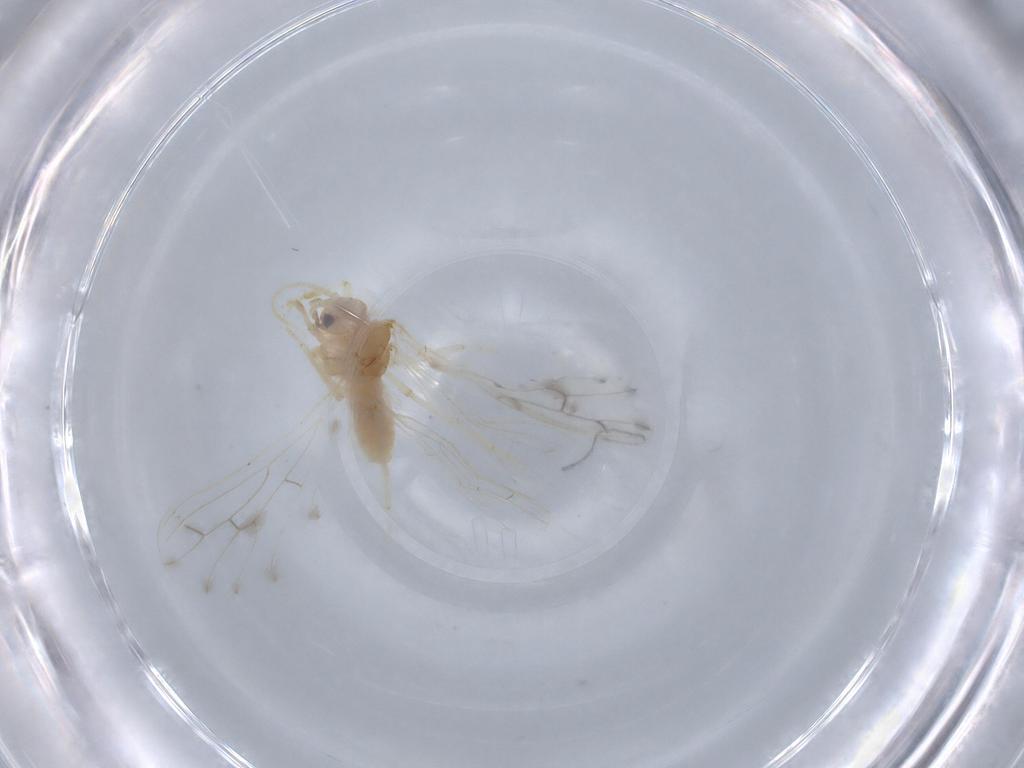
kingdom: Animalia
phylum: Arthropoda
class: Insecta
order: Neuroptera
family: Coniopterygidae
